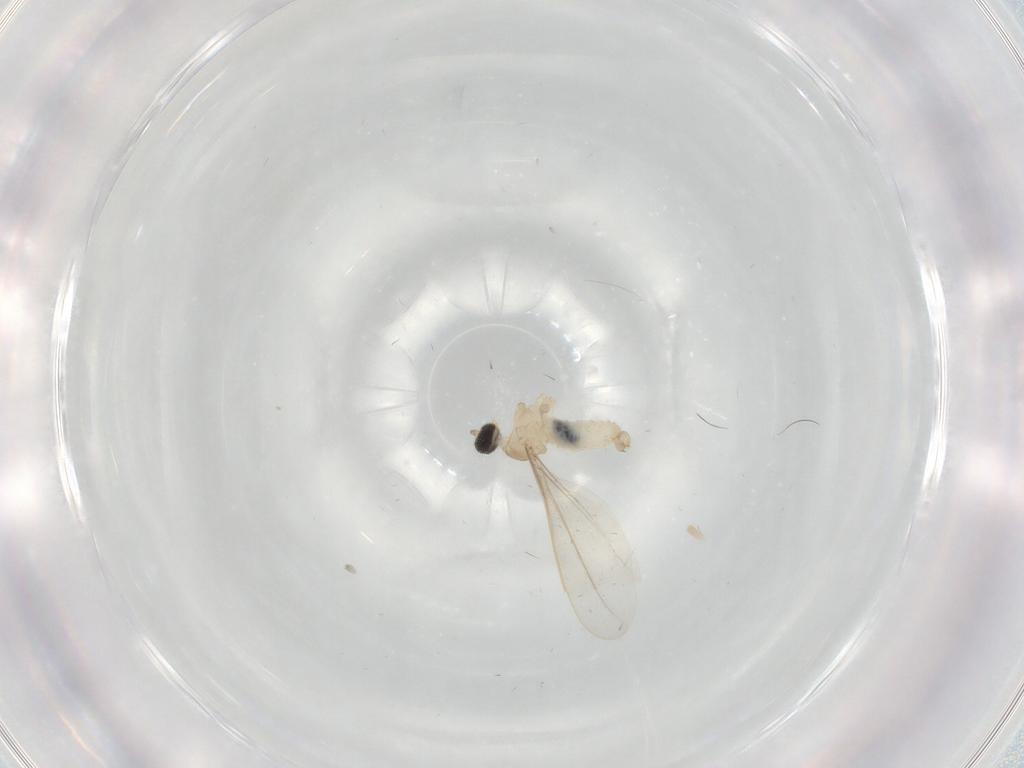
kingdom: Animalia
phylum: Arthropoda
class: Insecta
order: Diptera
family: Cecidomyiidae
